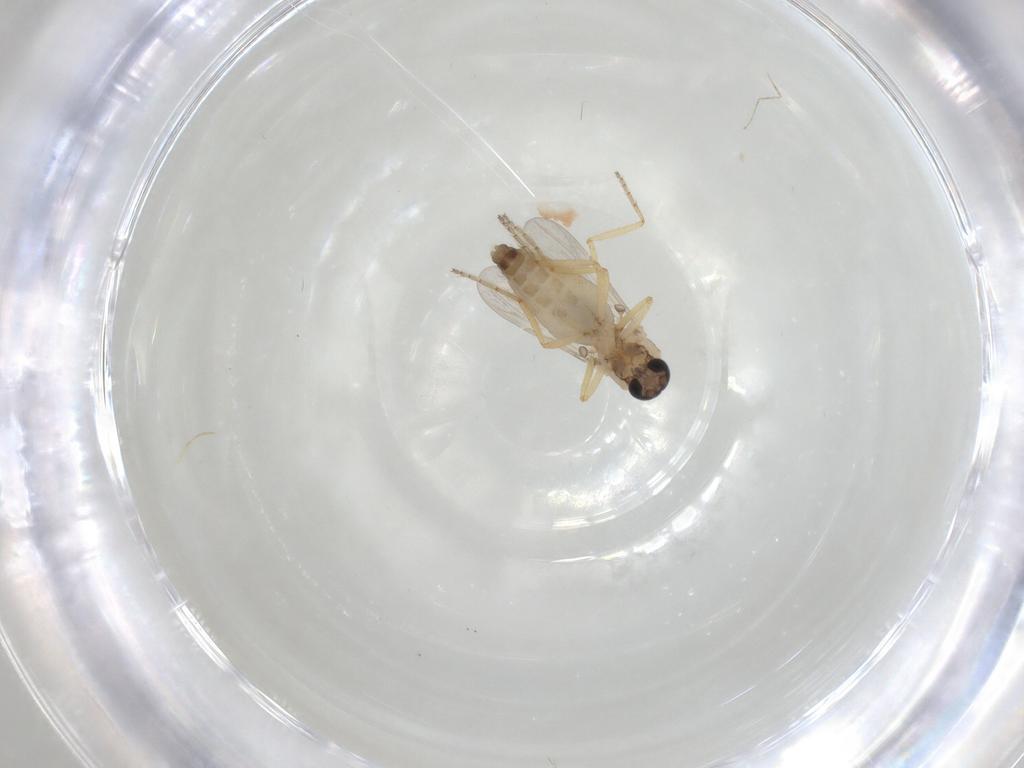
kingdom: Animalia
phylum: Arthropoda
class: Insecta
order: Diptera
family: Ceratopogonidae
